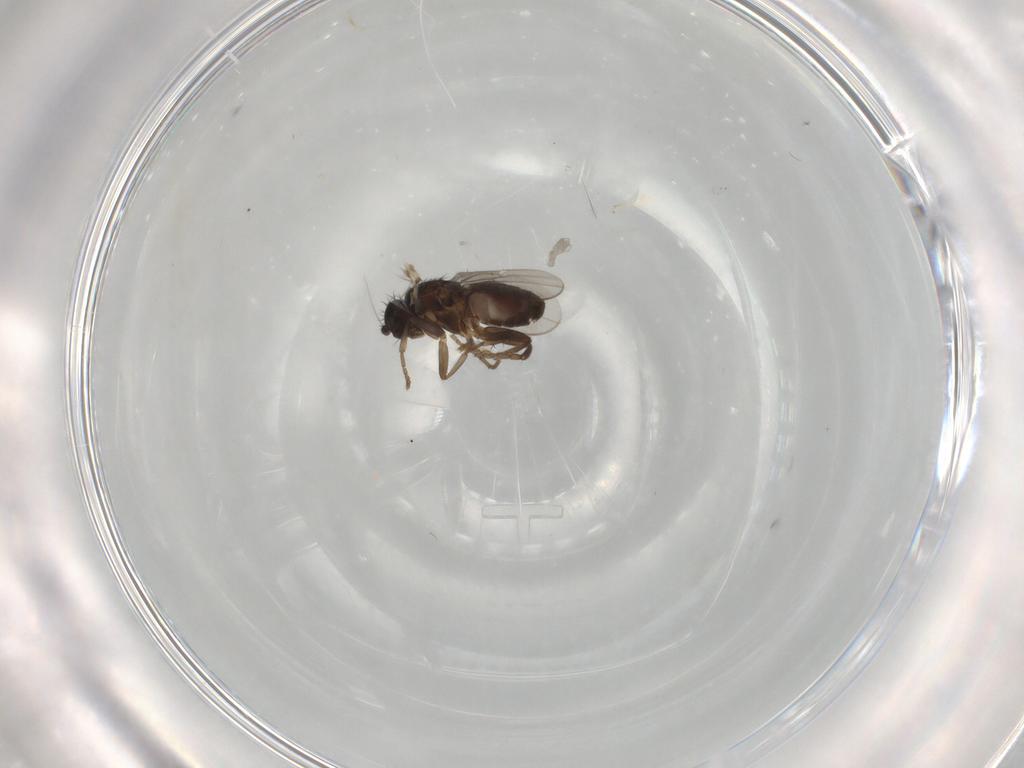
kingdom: Animalia
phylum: Arthropoda
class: Insecta
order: Diptera
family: Sphaeroceridae
